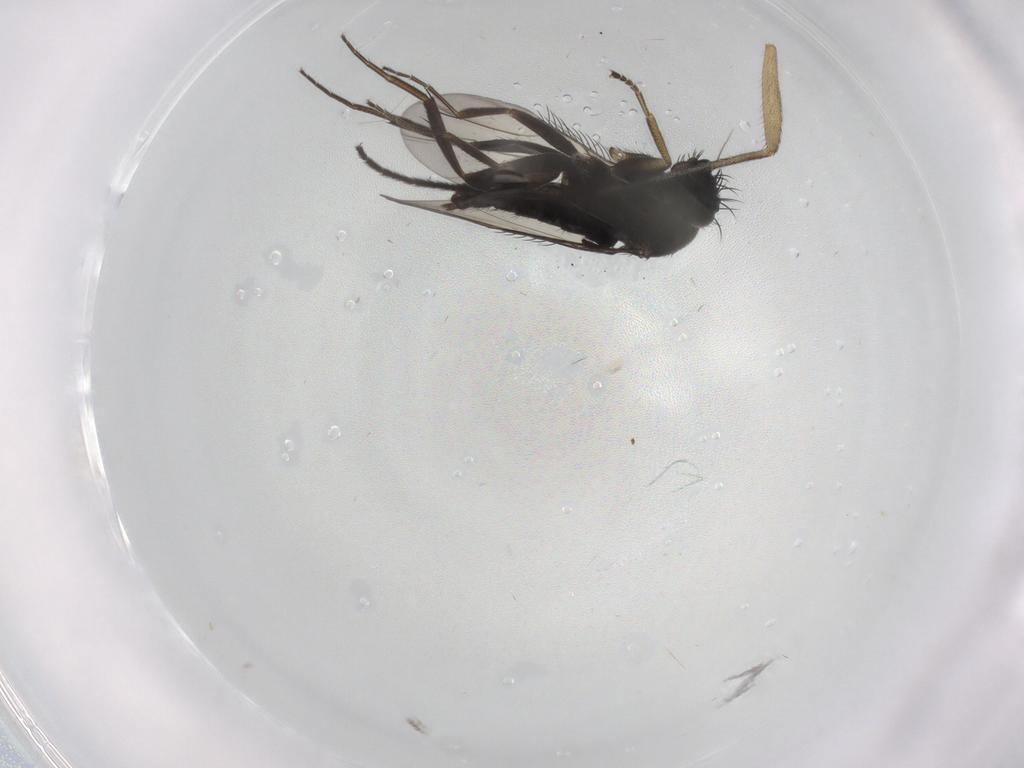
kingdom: Animalia
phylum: Arthropoda
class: Insecta
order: Diptera
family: Phoridae
